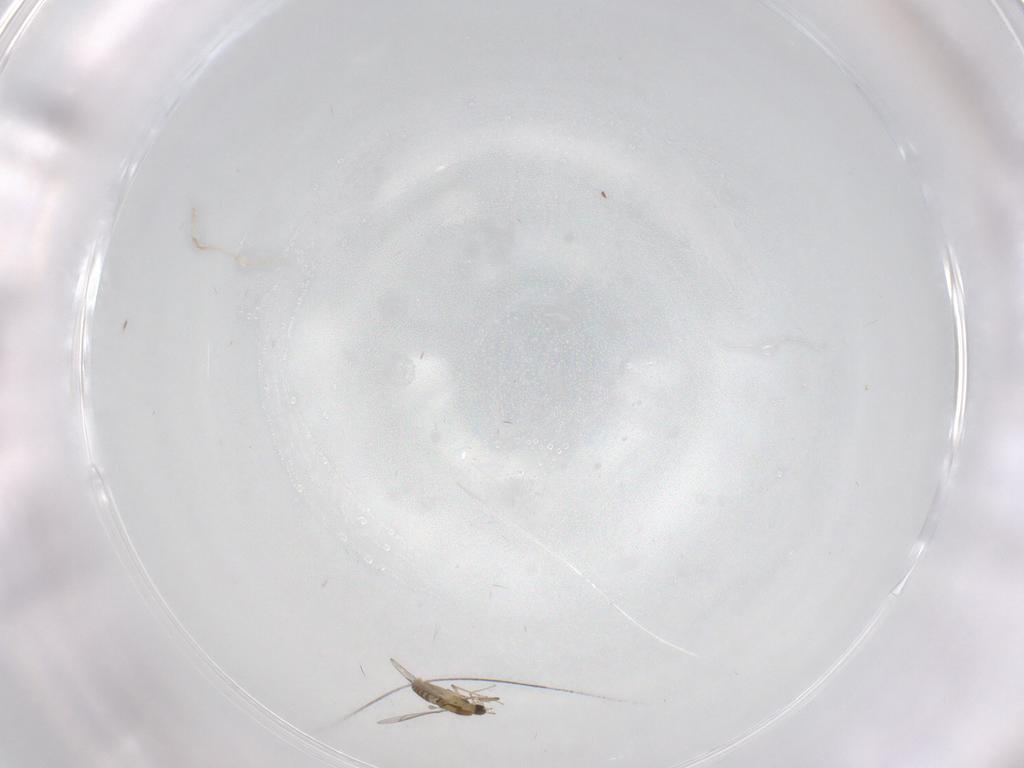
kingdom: Animalia
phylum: Arthropoda
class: Insecta
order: Diptera
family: Chironomidae
